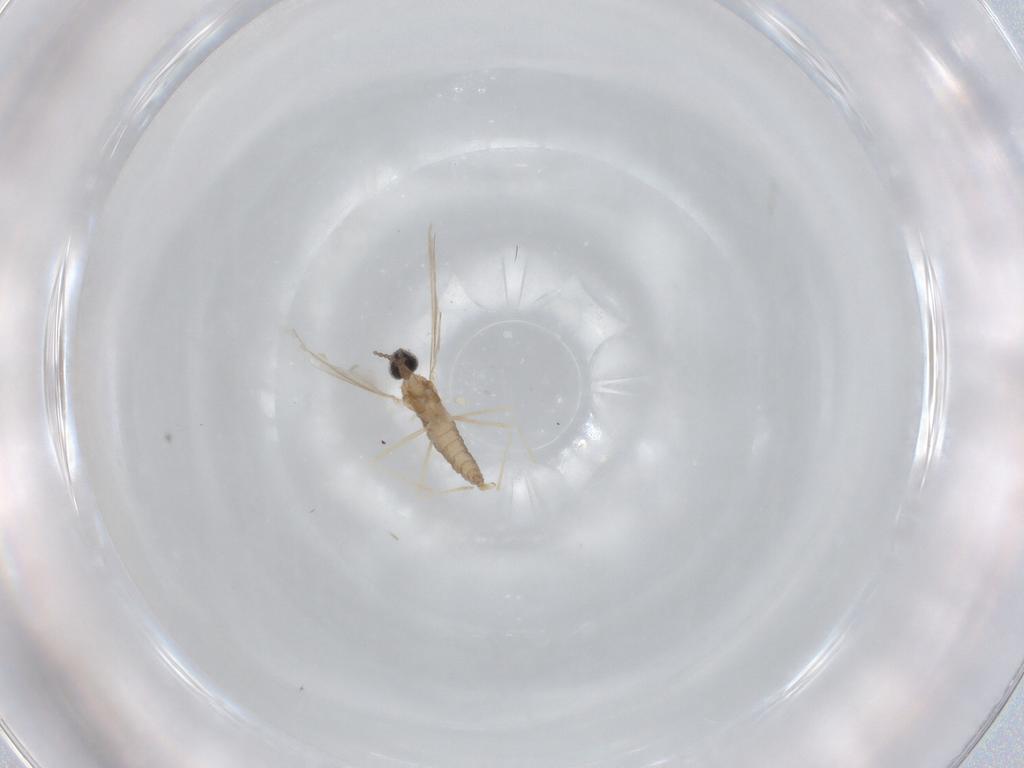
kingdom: Animalia
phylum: Arthropoda
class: Insecta
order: Diptera
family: Cecidomyiidae
